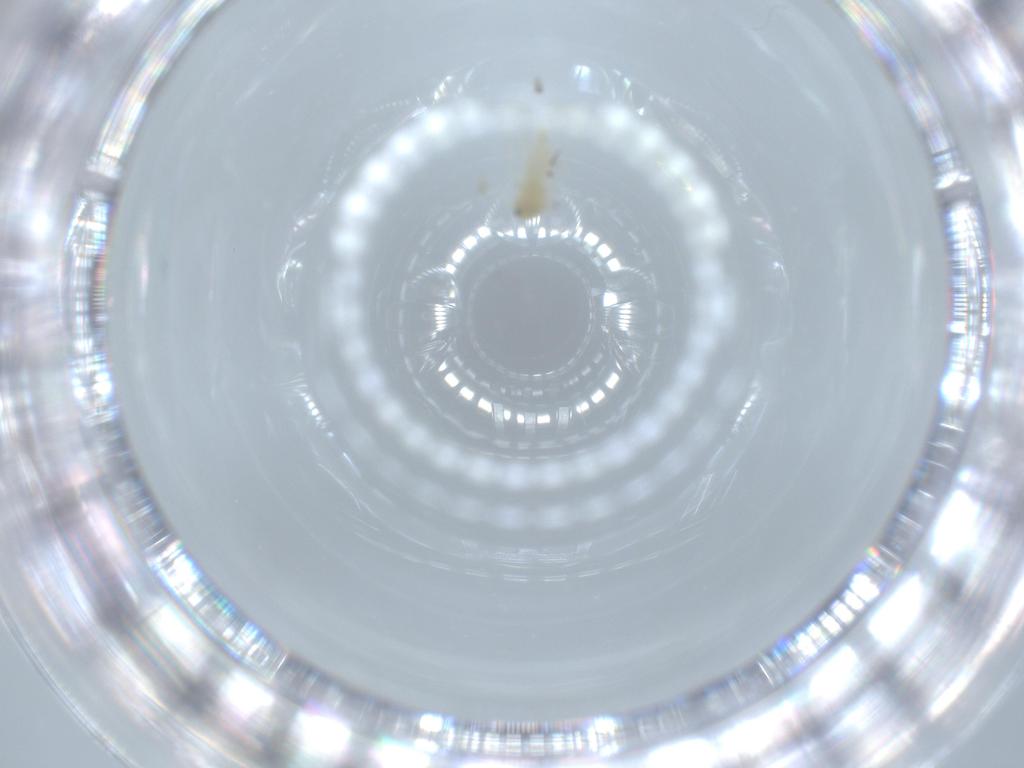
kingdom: Animalia
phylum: Arthropoda
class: Insecta
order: Hemiptera
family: Aleyrodidae
